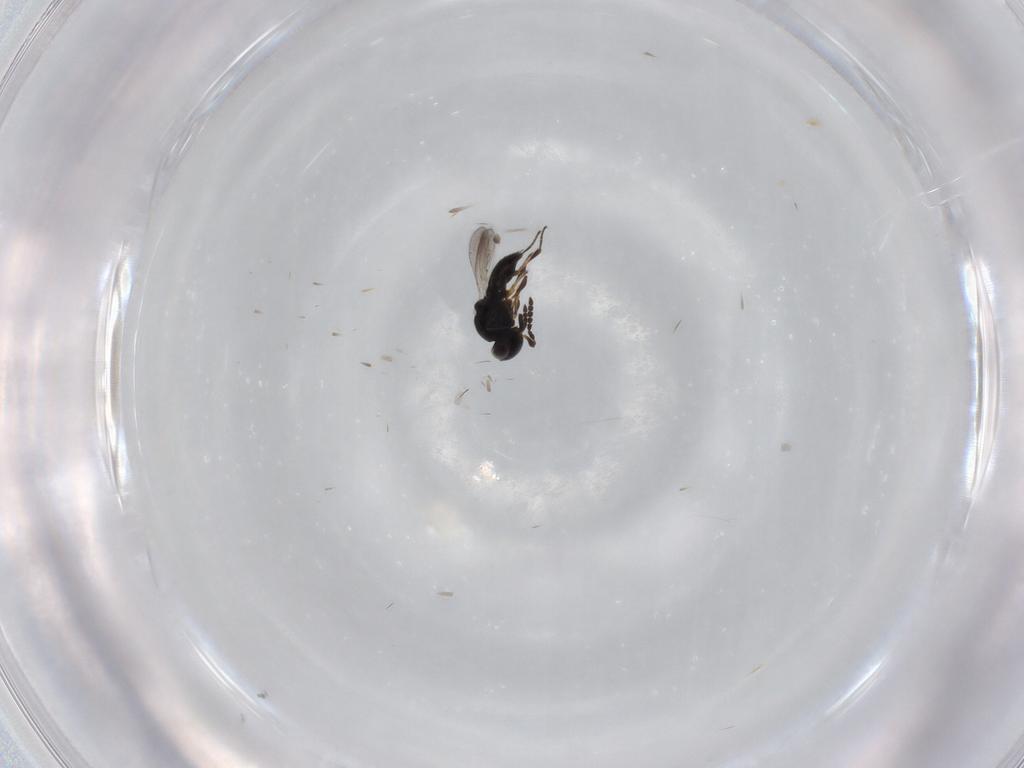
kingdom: Animalia
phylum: Arthropoda
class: Insecta
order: Hymenoptera
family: Platygastridae
